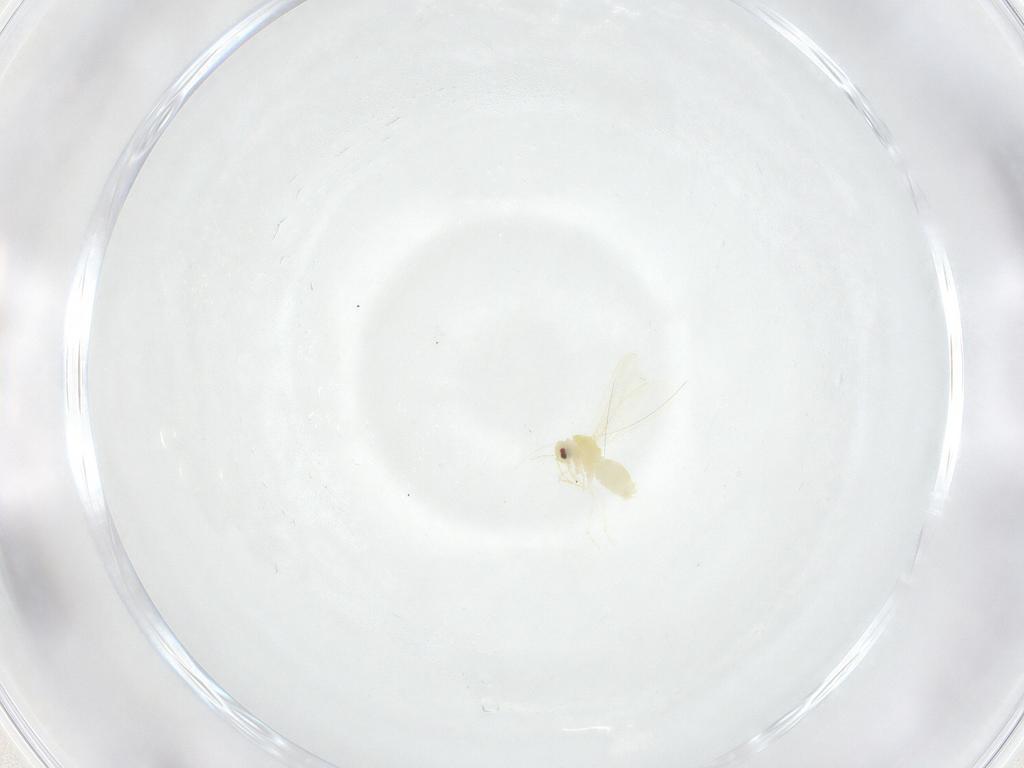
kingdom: Animalia
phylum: Arthropoda
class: Insecta
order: Hemiptera
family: Aleyrodidae
